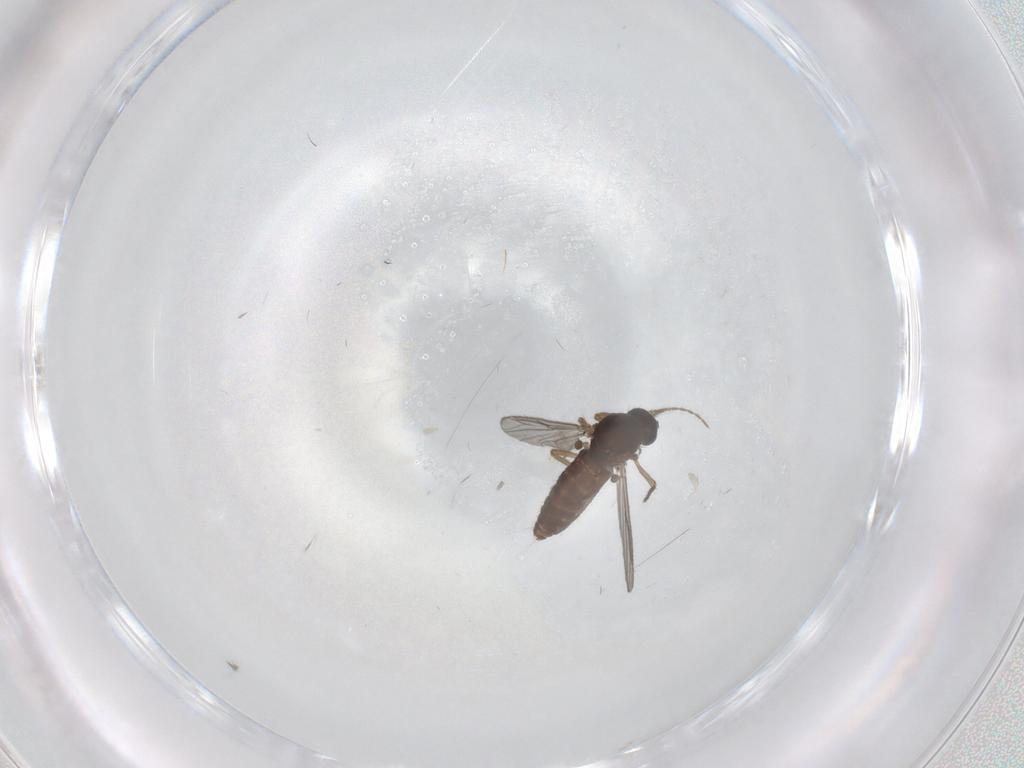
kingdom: Animalia
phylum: Arthropoda
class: Insecta
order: Diptera
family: Ceratopogonidae
